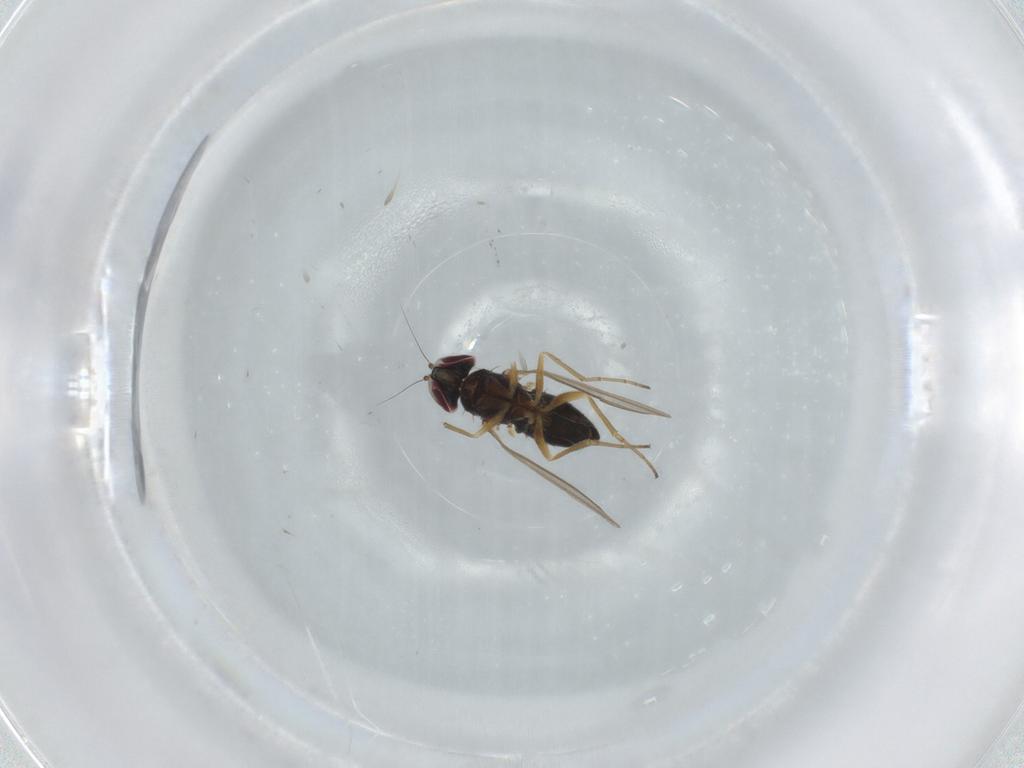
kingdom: Animalia
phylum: Arthropoda
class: Insecta
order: Diptera
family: Dolichopodidae
